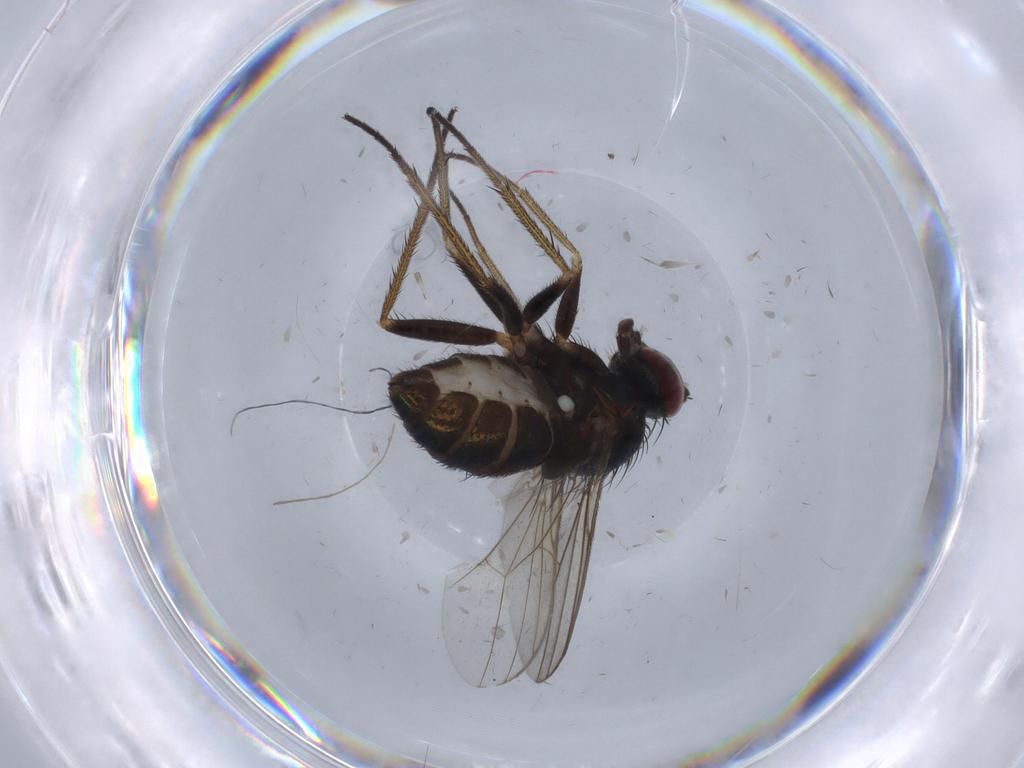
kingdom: Animalia
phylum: Arthropoda
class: Insecta
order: Diptera
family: Dolichopodidae
